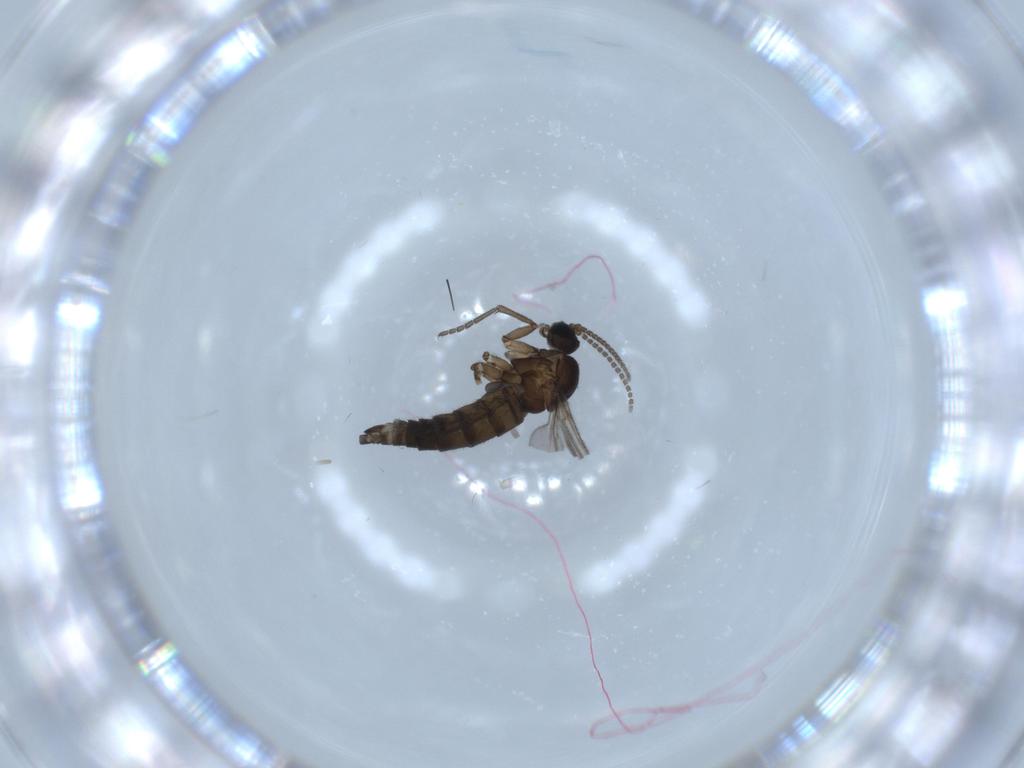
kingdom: Animalia
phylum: Arthropoda
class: Insecta
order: Diptera
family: Sciaridae
